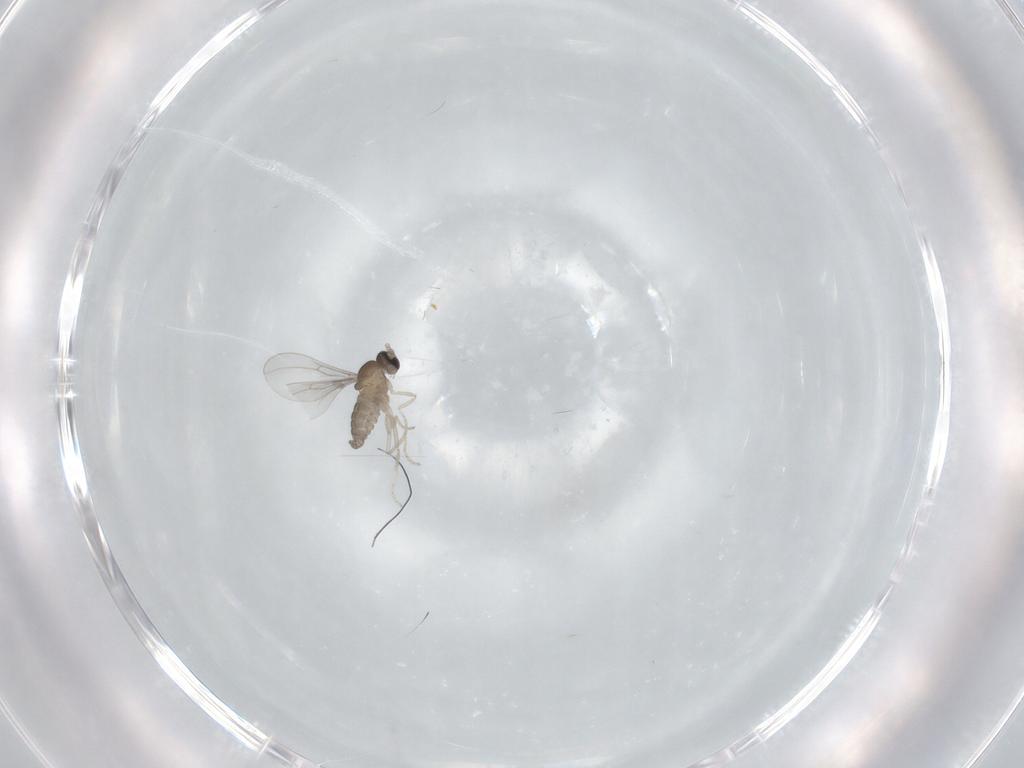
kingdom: Animalia
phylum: Arthropoda
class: Insecta
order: Diptera
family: Cecidomyiidae
